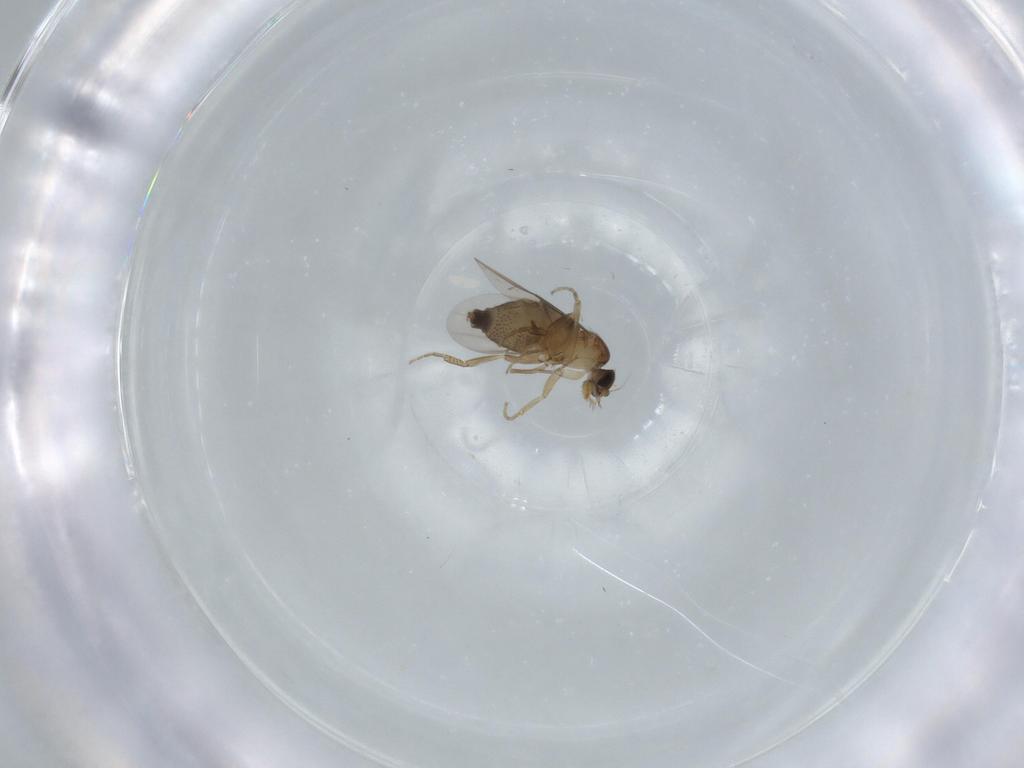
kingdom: Animalia
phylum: Arthropoda
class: Insecta
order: Diptera
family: Cecidomyiidae
